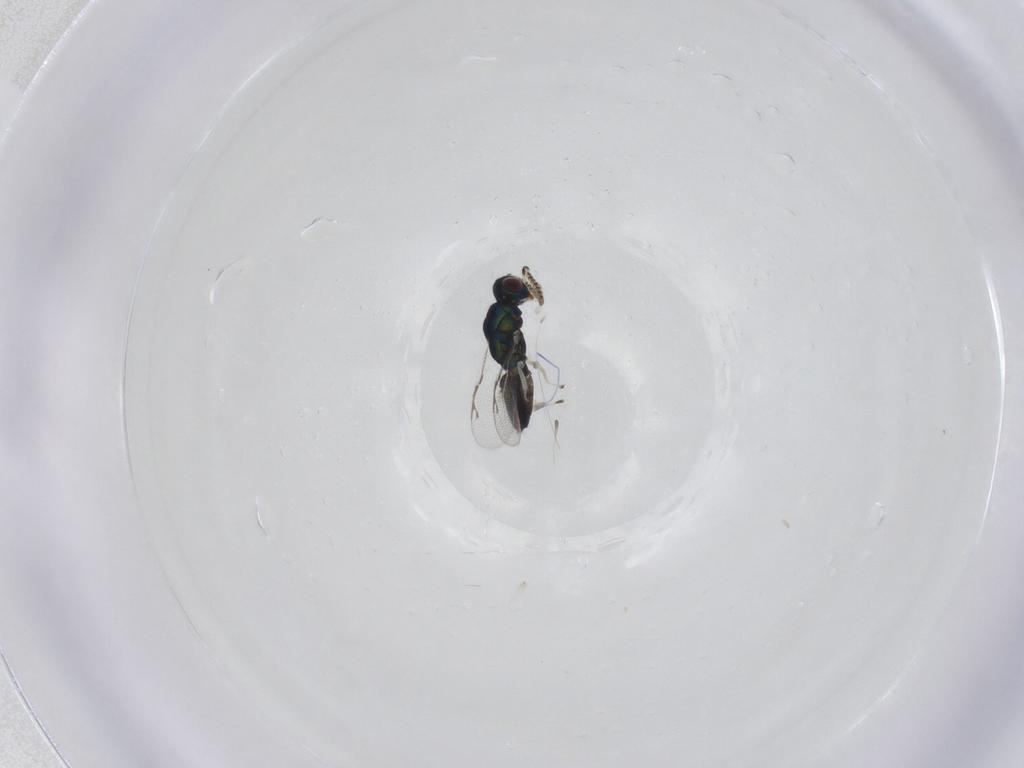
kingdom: Animalia
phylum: Arthropoda
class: Insecta
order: Hymenoptera
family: Pirenidae
